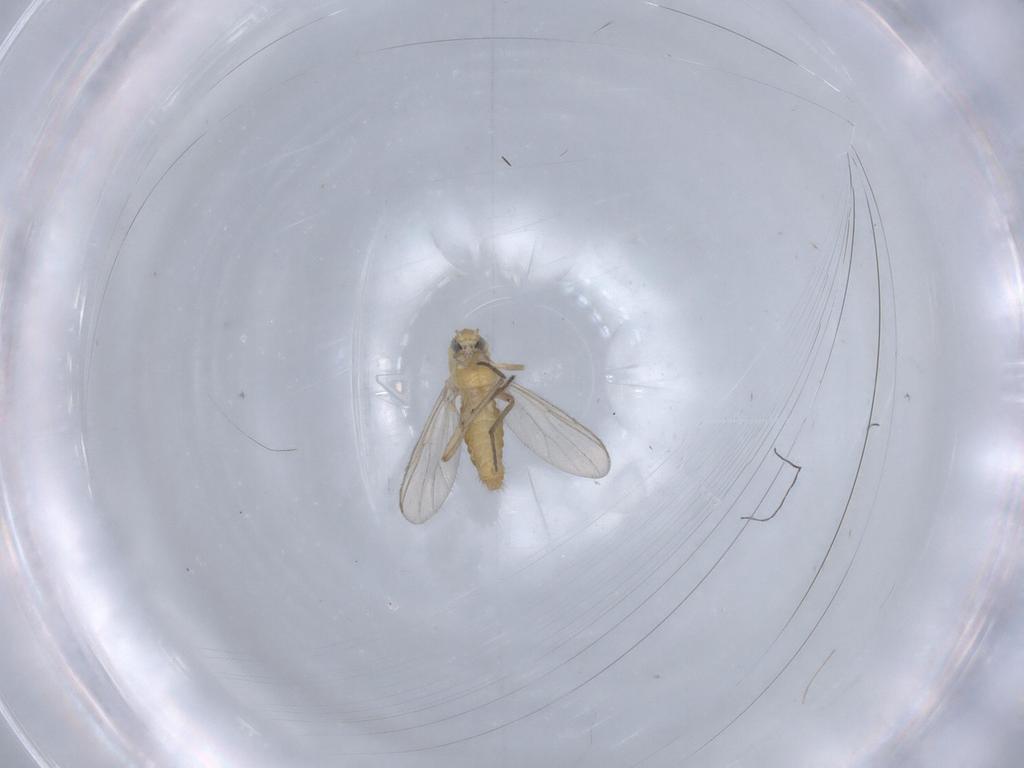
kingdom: Animalia
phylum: Arthropoda
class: Insecta
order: Diptera
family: Chironomidae
